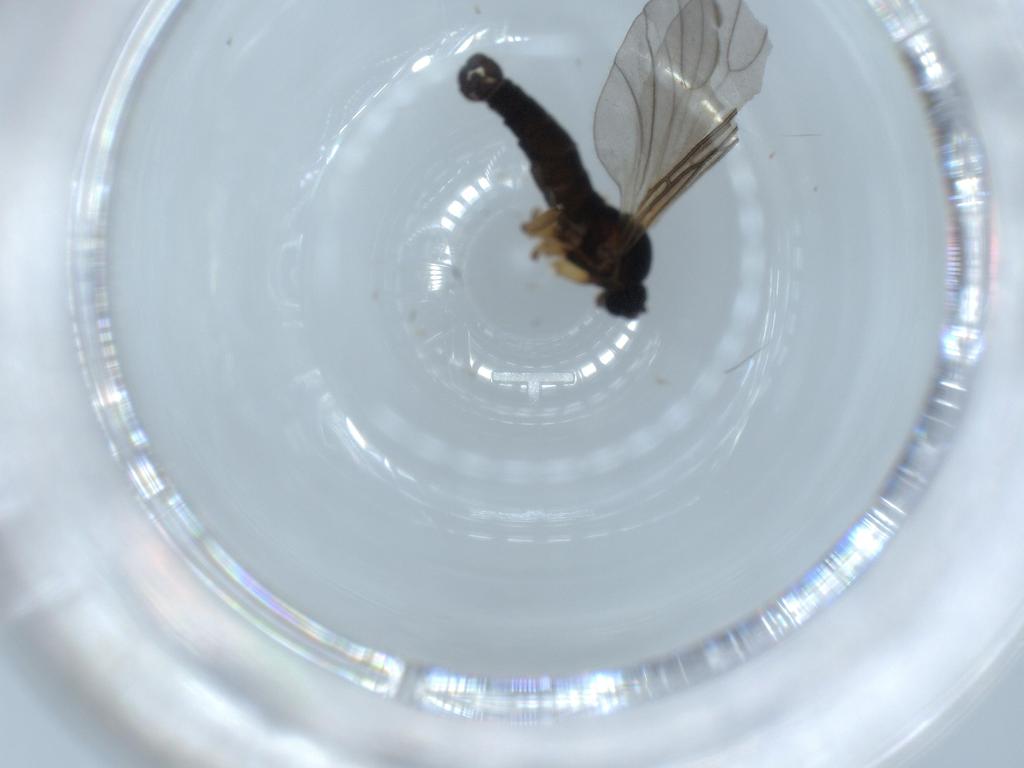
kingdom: Animalia
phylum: Arthropoda
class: Insecta
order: Diptera
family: Sciaridae
